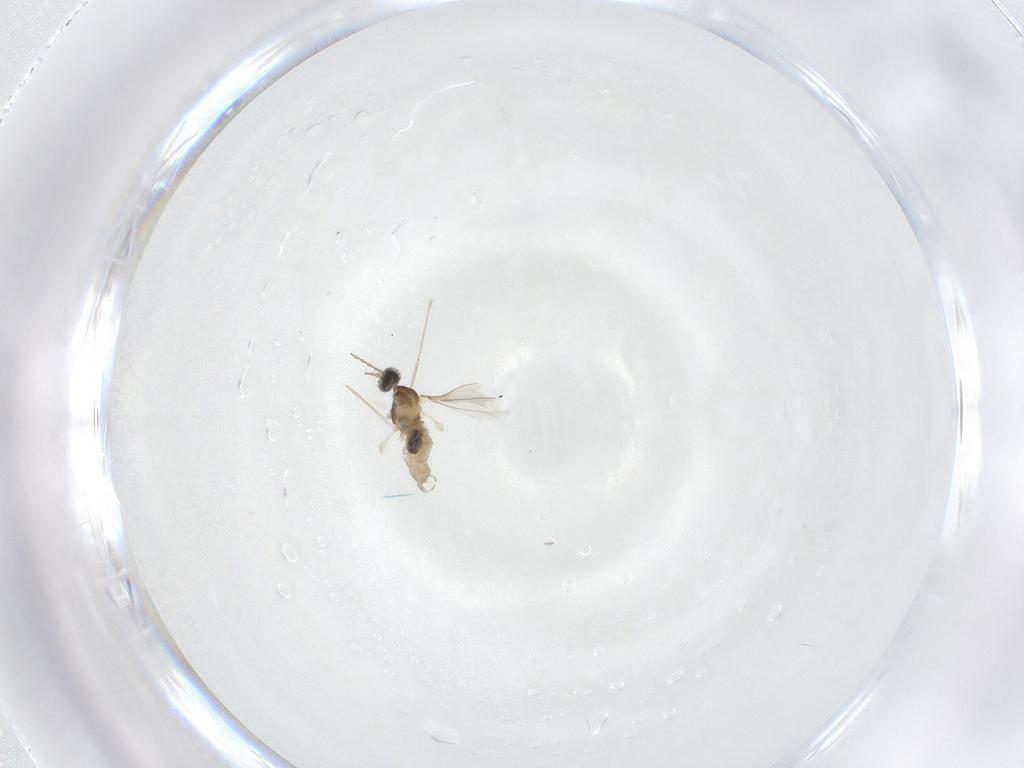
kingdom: Animalia
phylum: Arthropoda
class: Insecta
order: Diptera
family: Cecidomyiidae
